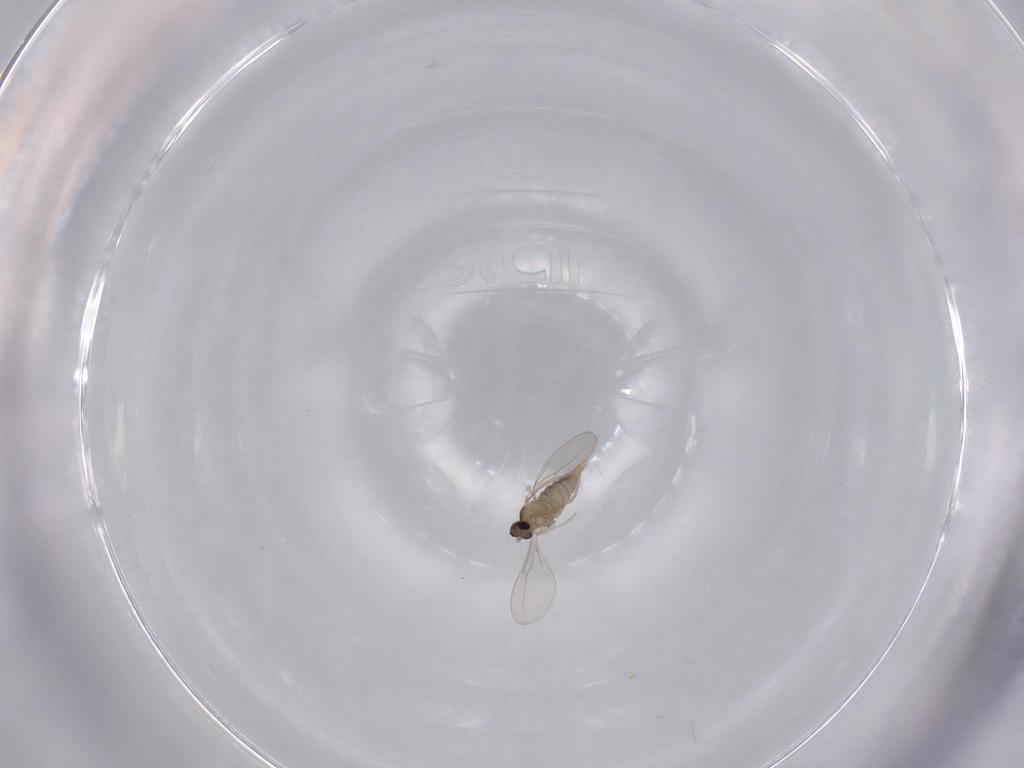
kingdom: Animalia
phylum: Arthropoda
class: Insecta
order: Diptera
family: Cecidomyiidae
